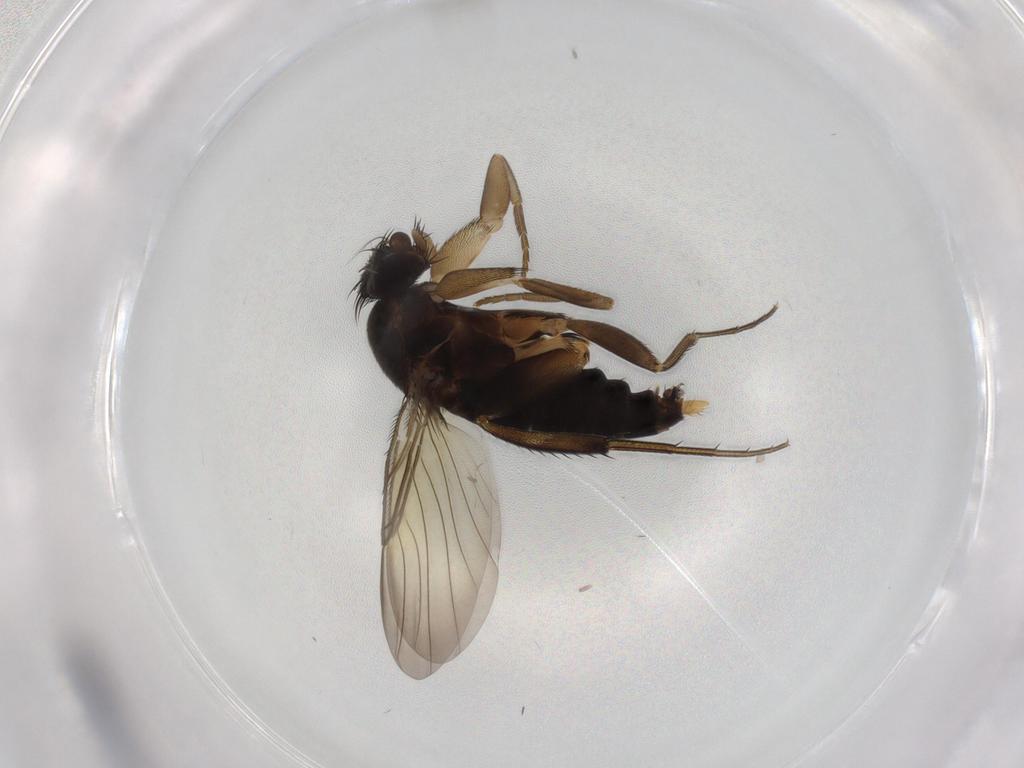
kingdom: Animalia
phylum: Arthropoda
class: Insecta
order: Diptera
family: Phoridae
